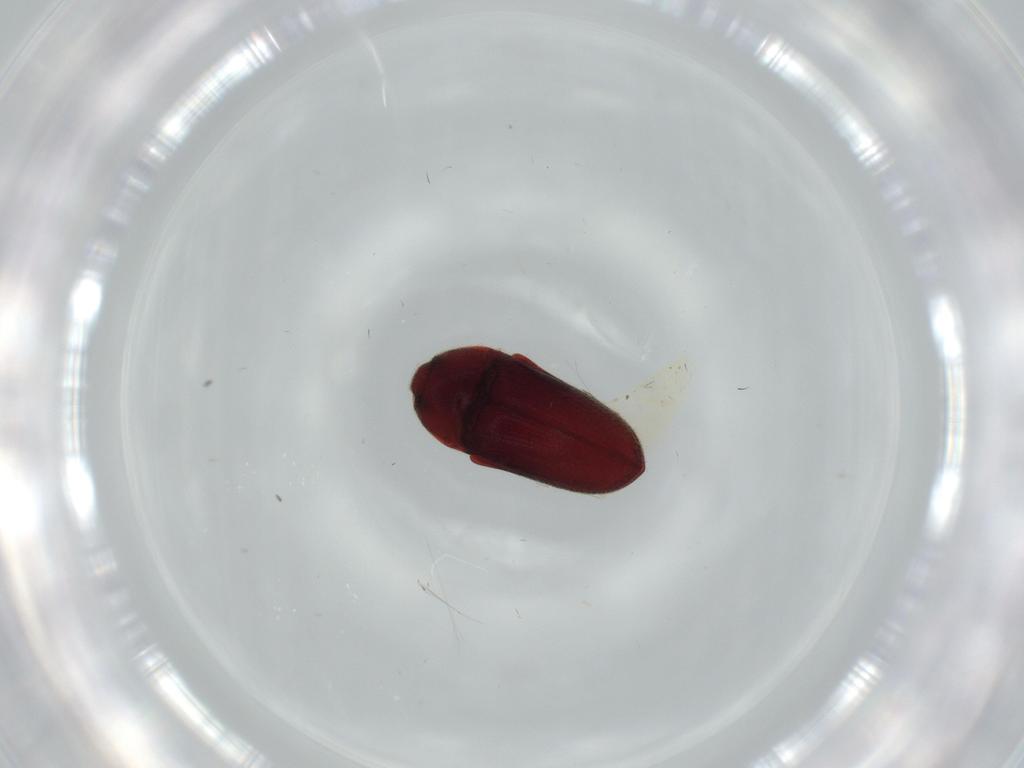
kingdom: Animalia
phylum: Arthropoda
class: Insecta
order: Coleoptera
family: Throscidae
